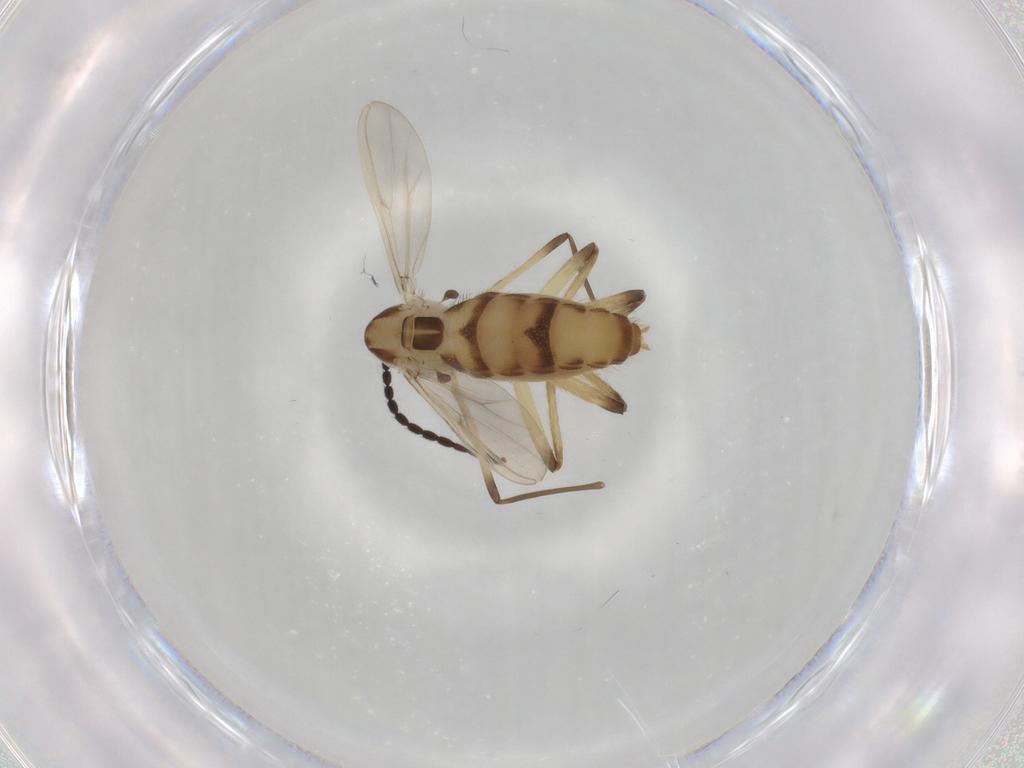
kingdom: Animalia
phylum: Arthropoda
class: Insecta
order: Diptera
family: Chironomidae
